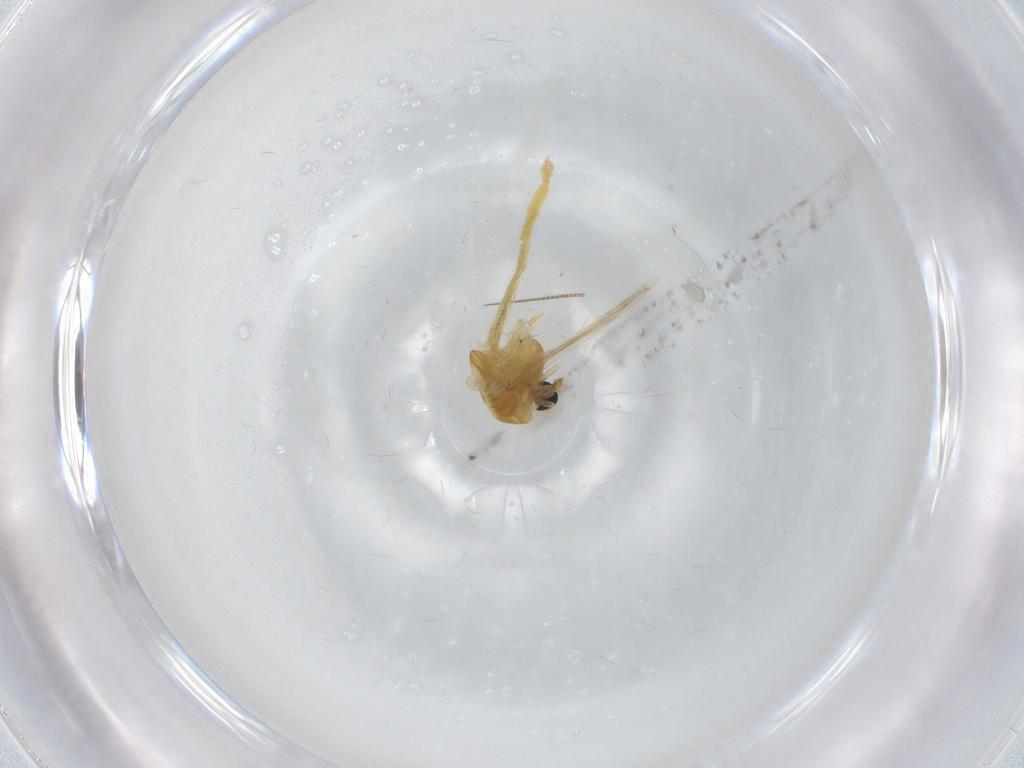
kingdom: Animalia
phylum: Arthropoda
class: Insecta
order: Diptera
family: Chironomidae
